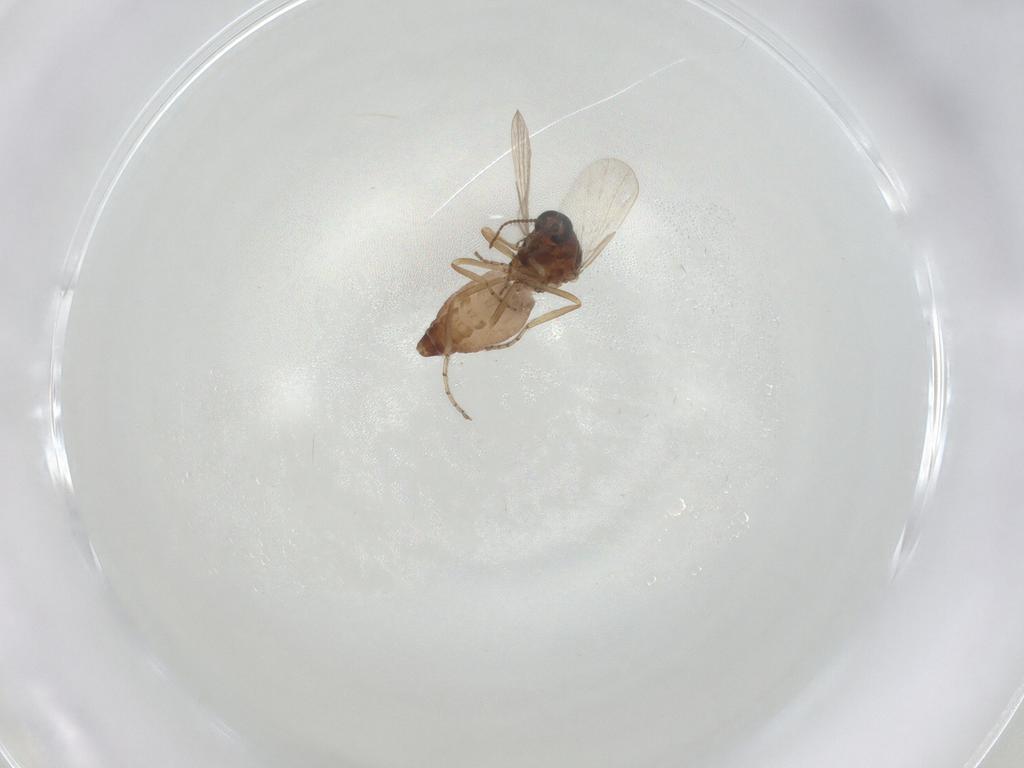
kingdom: Animalia
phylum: Arthropoda
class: Insecta
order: Diptera
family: Ceratopogonidae
